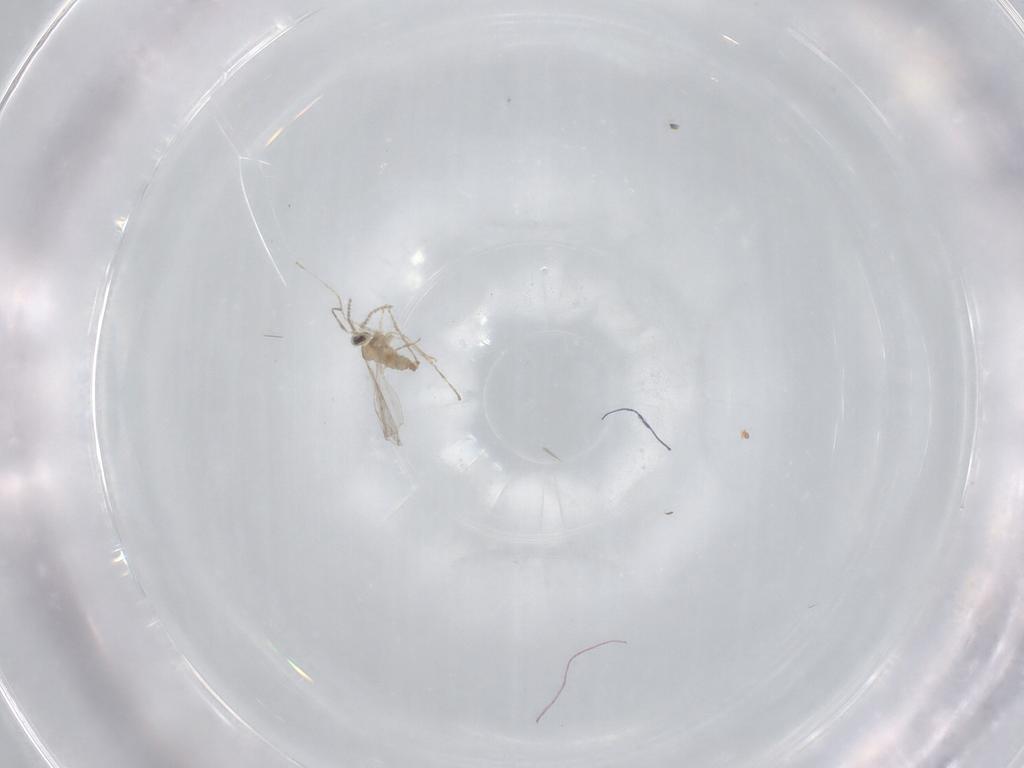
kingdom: Animalia
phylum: Arthropoda
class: Insecta
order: Diptera
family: Cecidomyiidae
